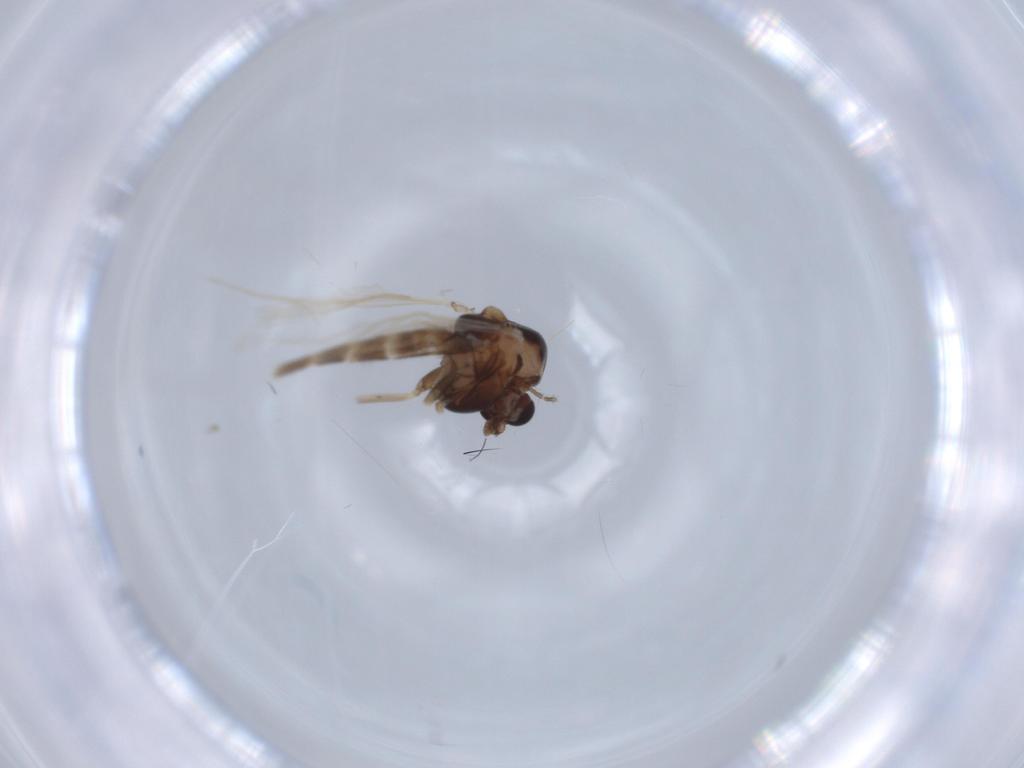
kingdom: Animalia
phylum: Arthropoda
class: Insecta
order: Diptera
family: Chironomidae
